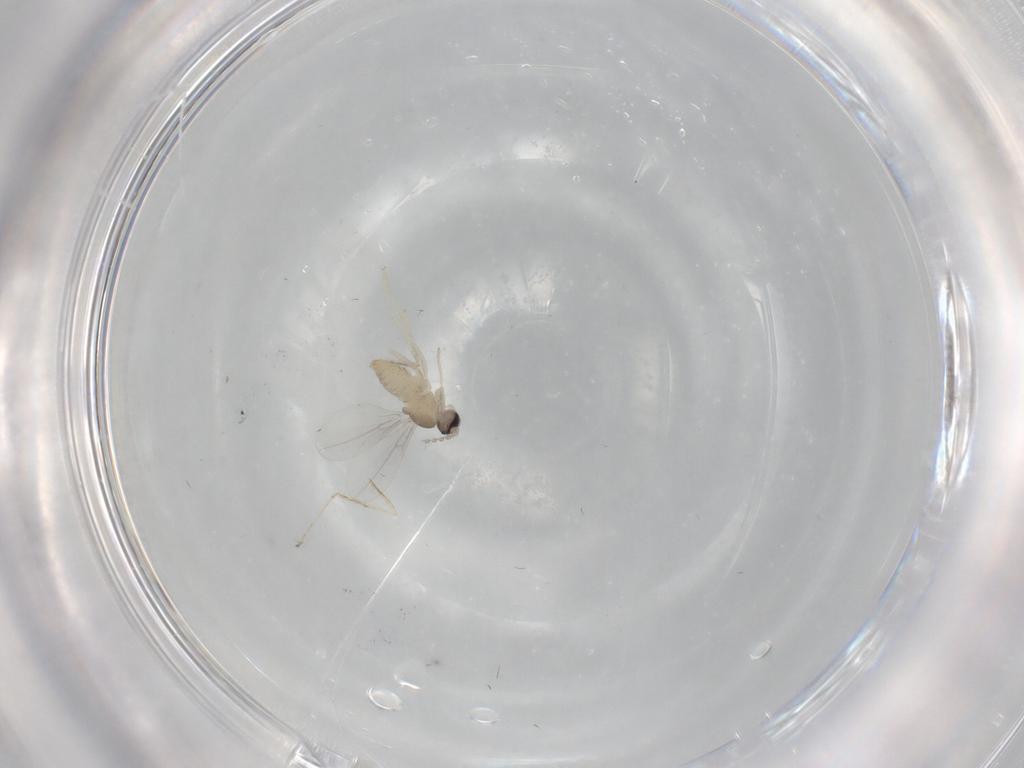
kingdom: Animalia
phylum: Arthropoda
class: Insecta
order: Diptera
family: Cecidomyiidae
